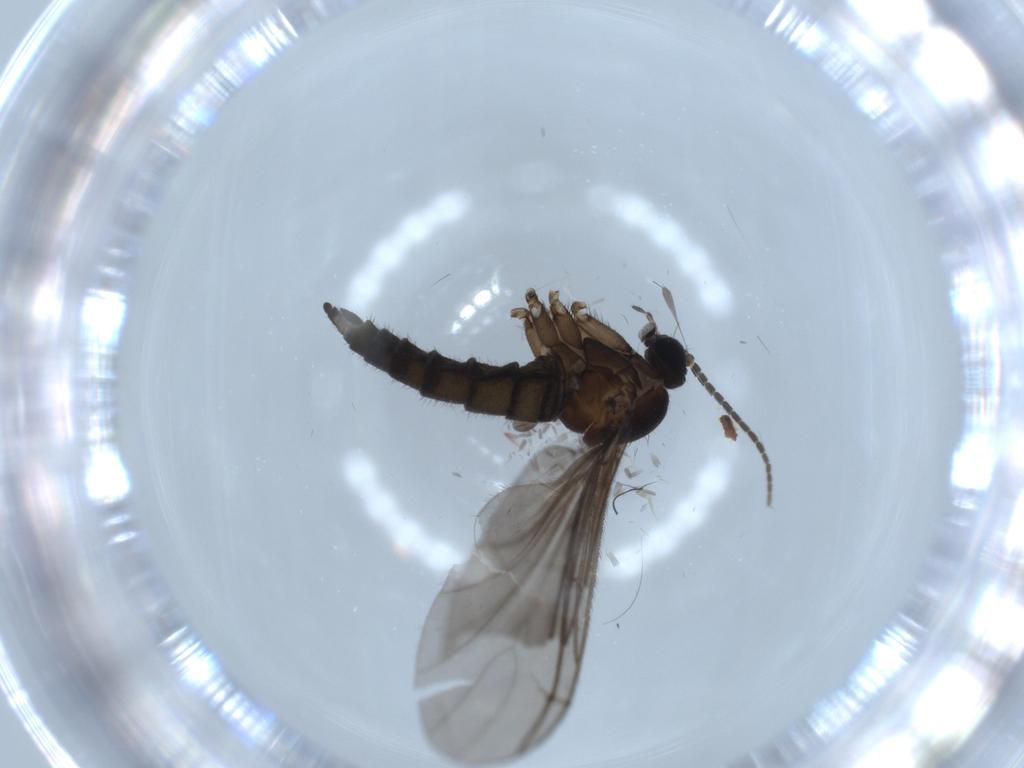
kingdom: Animalia
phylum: Arthropoda
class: Insecta
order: Diptera
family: Sciaridae
